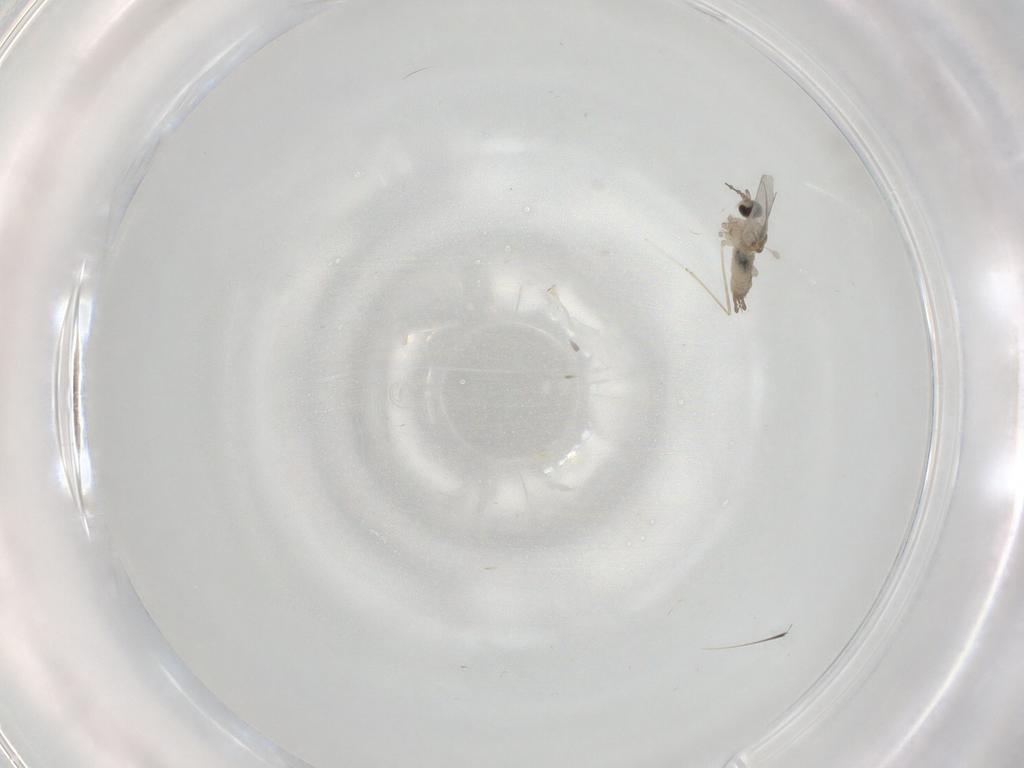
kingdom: Animalia
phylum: Arthropoda
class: Insecta
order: Diptera
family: Cecidomyiidae
